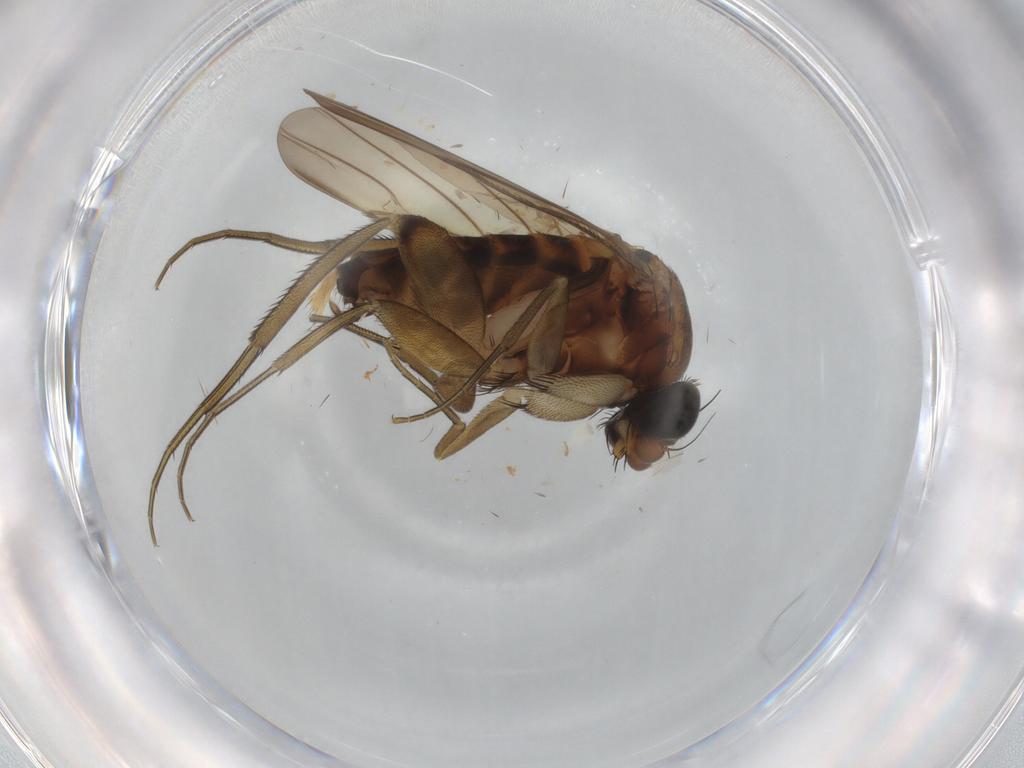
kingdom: Animalia
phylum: Arthropoda
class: Insecta
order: Diptera
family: Phoridae
